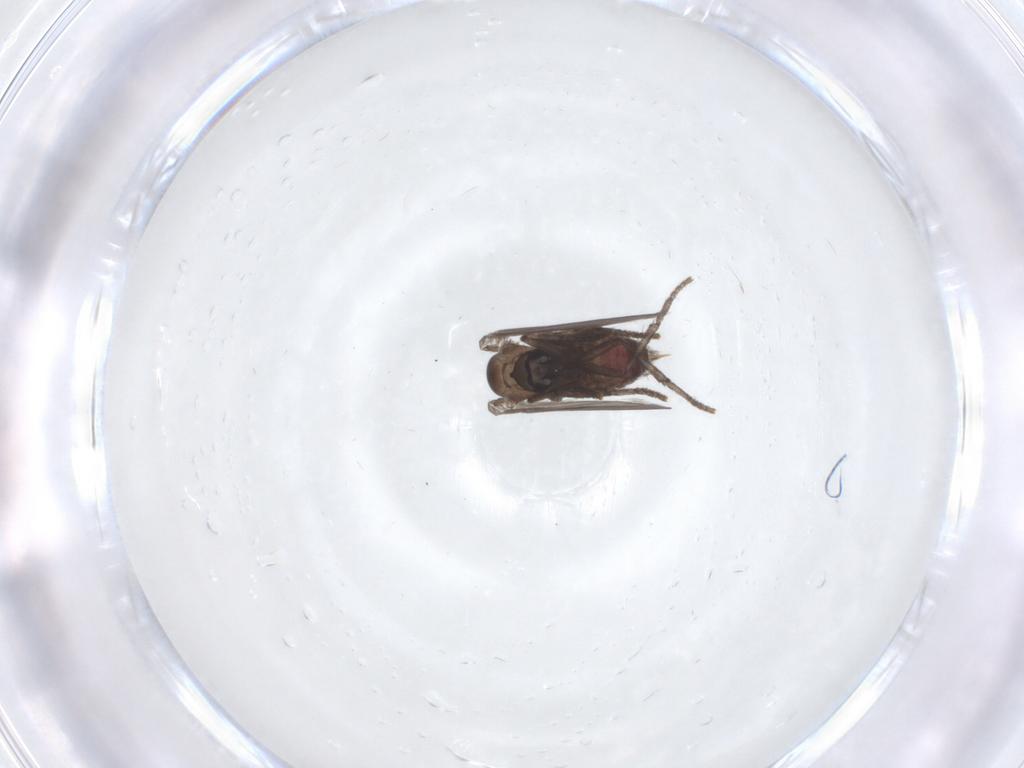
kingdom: Animalia
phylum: Arthropoda
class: Insecta
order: Diptera
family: Psychodidae
